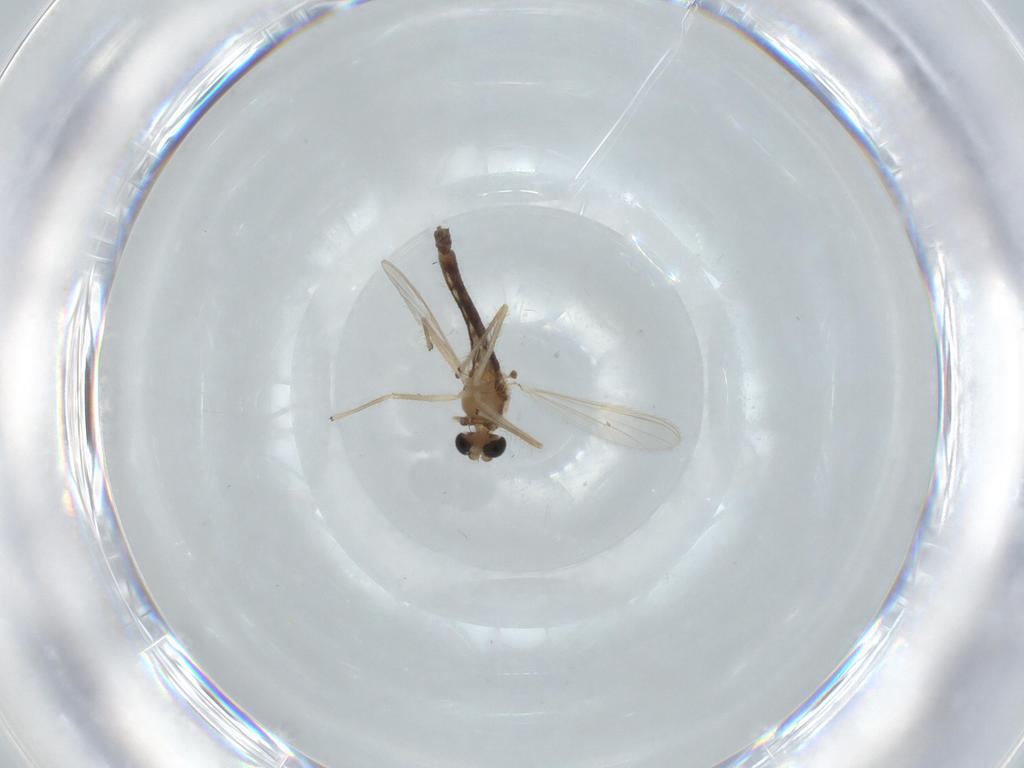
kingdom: Animalia
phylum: Arthropoda
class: Insecta
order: Diptera
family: Chironomidae
